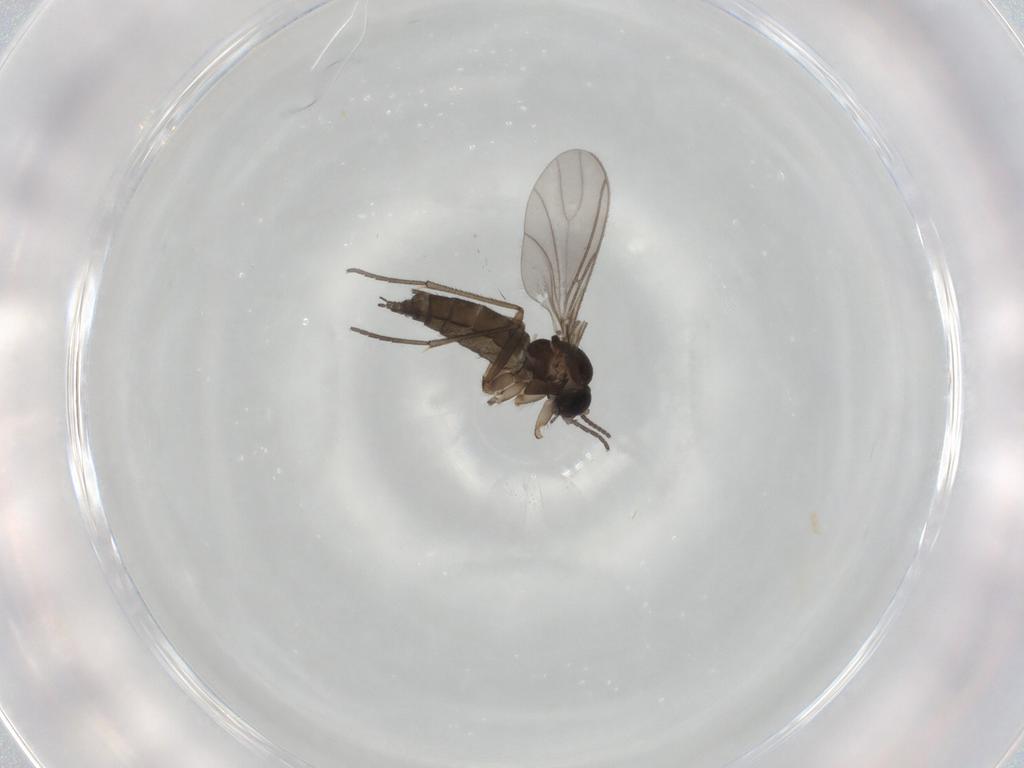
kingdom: Animalia
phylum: Arthropoda
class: Insecta
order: Diptera
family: Sciaridae
